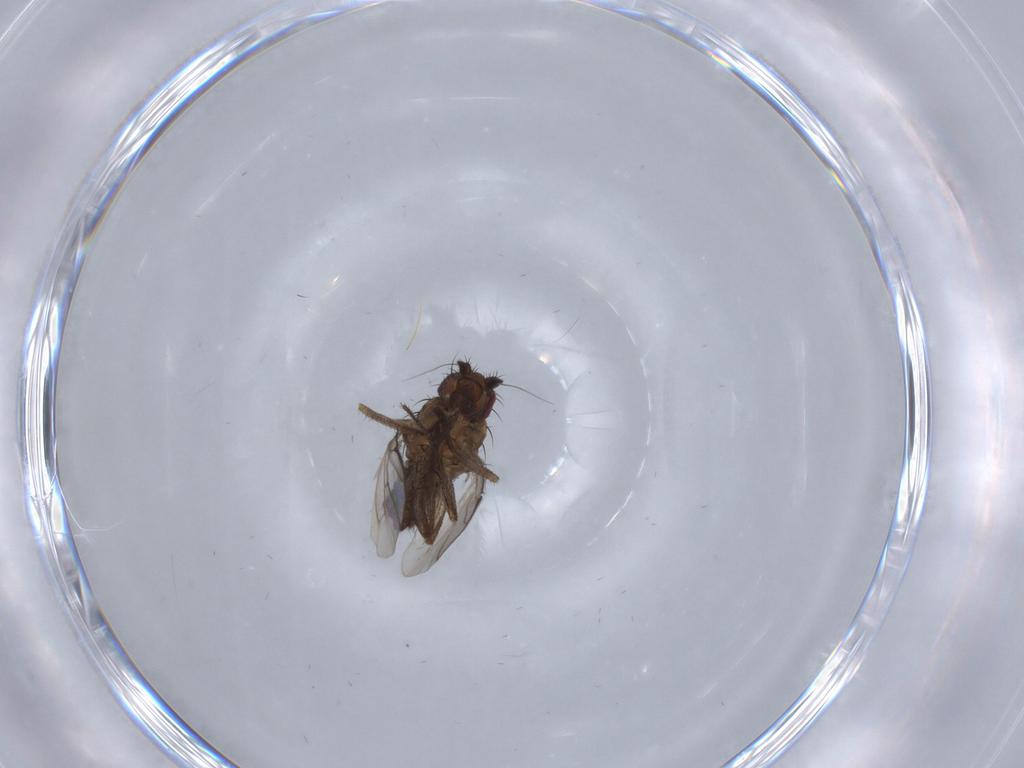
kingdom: Animalia
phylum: Arthropoda
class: Insecta
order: Diptera
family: Sphaeroceridae
